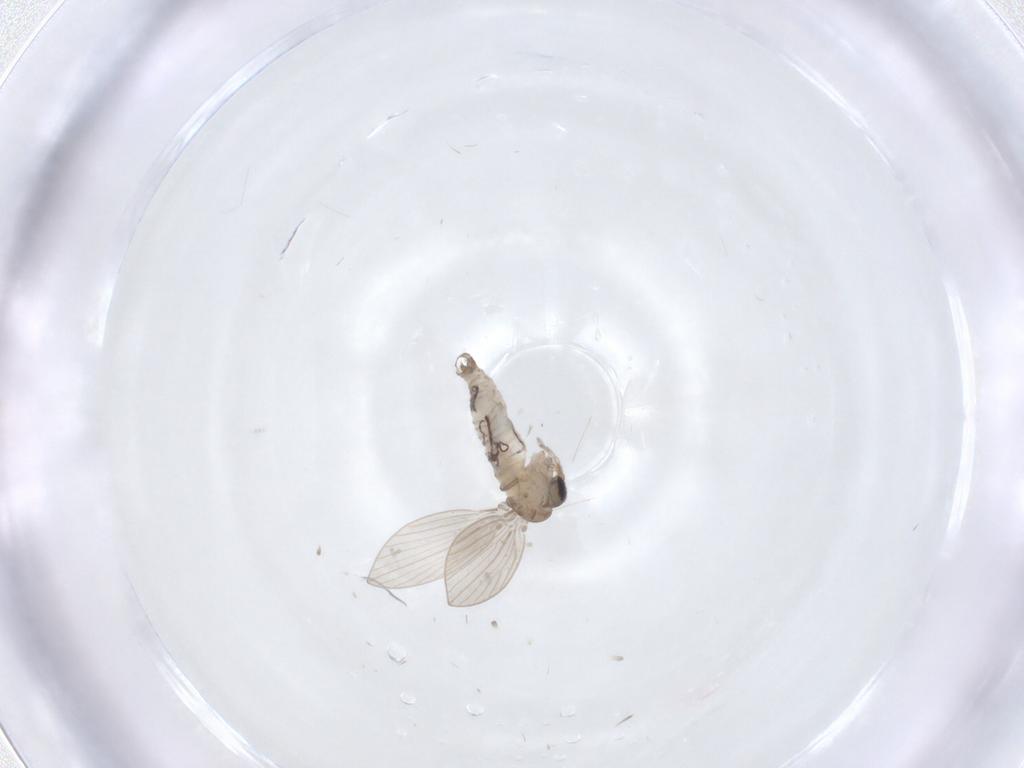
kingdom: Animalia
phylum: Arthropoda
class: Insecta
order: Diptera
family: Psychodidae
